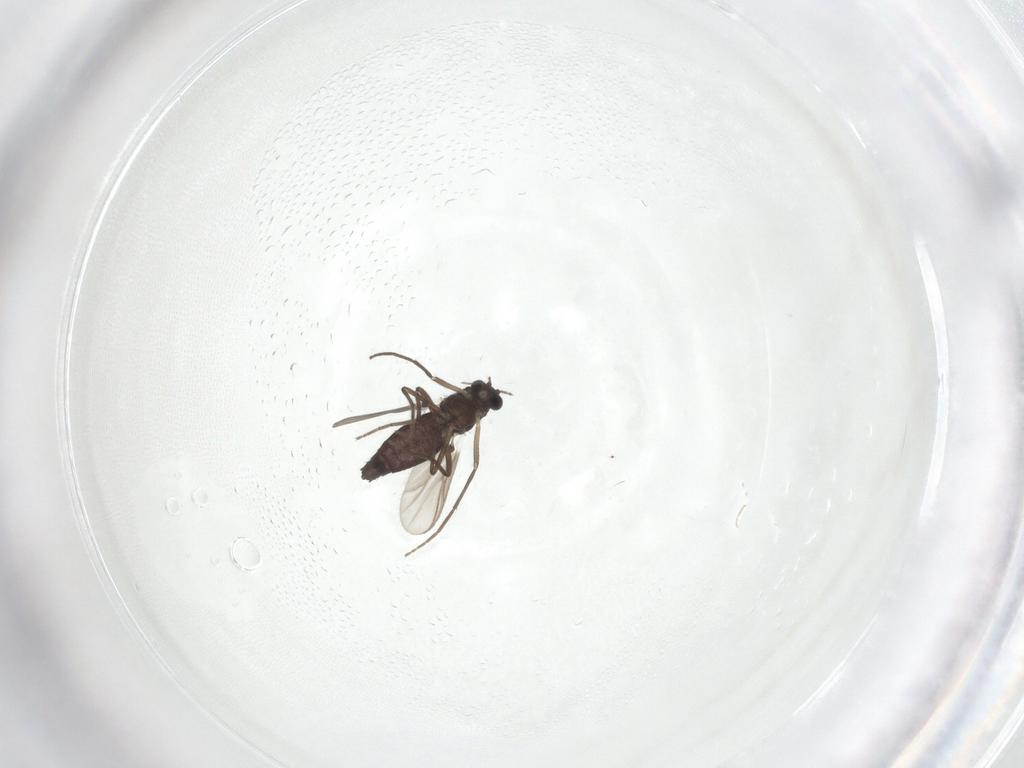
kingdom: Animalia
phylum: Arthropoda
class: Insecta
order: Diptera
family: Chironomidae
